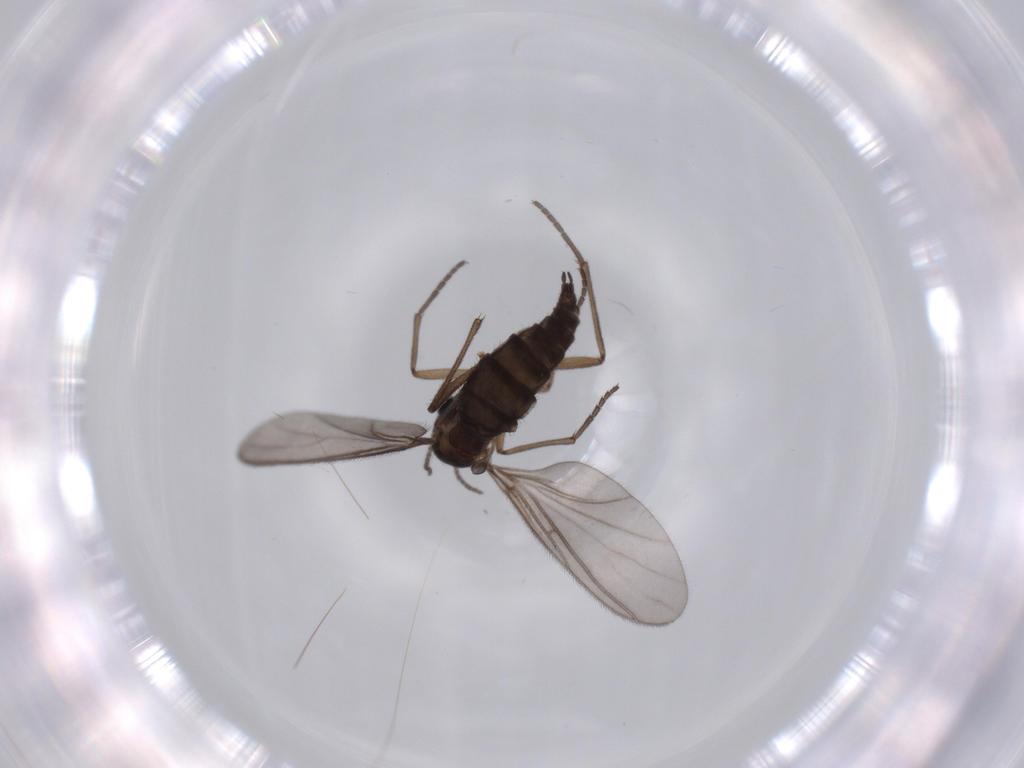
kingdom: Animalia
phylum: Arthropoda
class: Insecta
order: Diptera
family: Sciaridae
